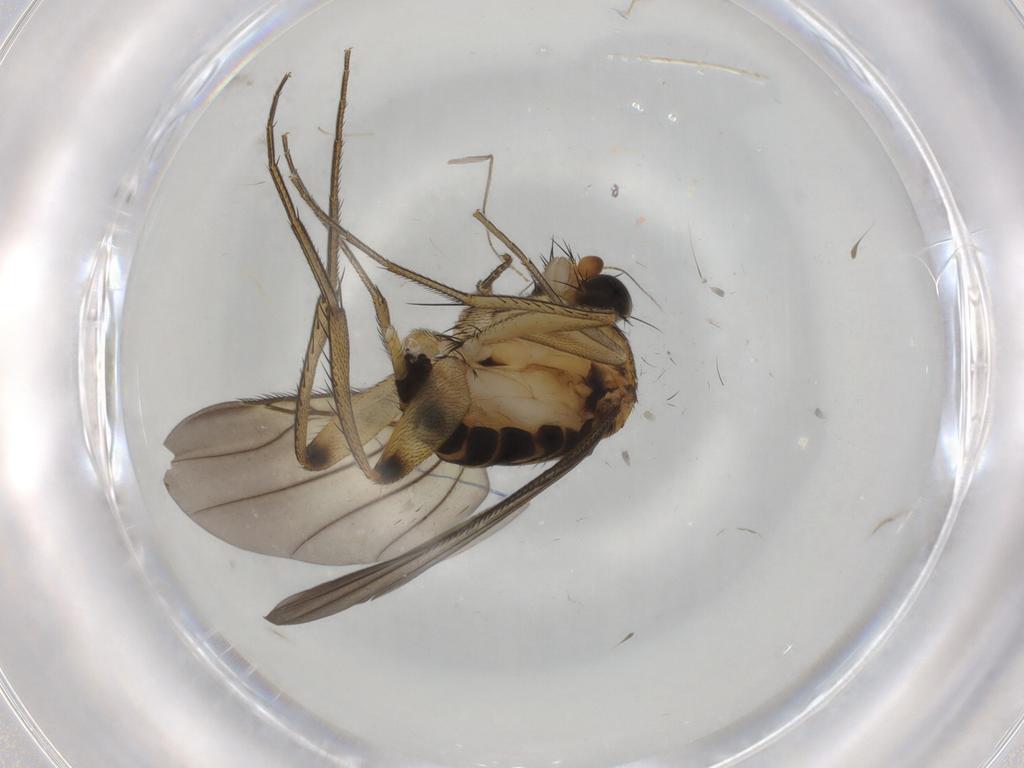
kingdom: Animalia
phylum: Arthropoda
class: Insecta
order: Diptera
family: Chironomidae
